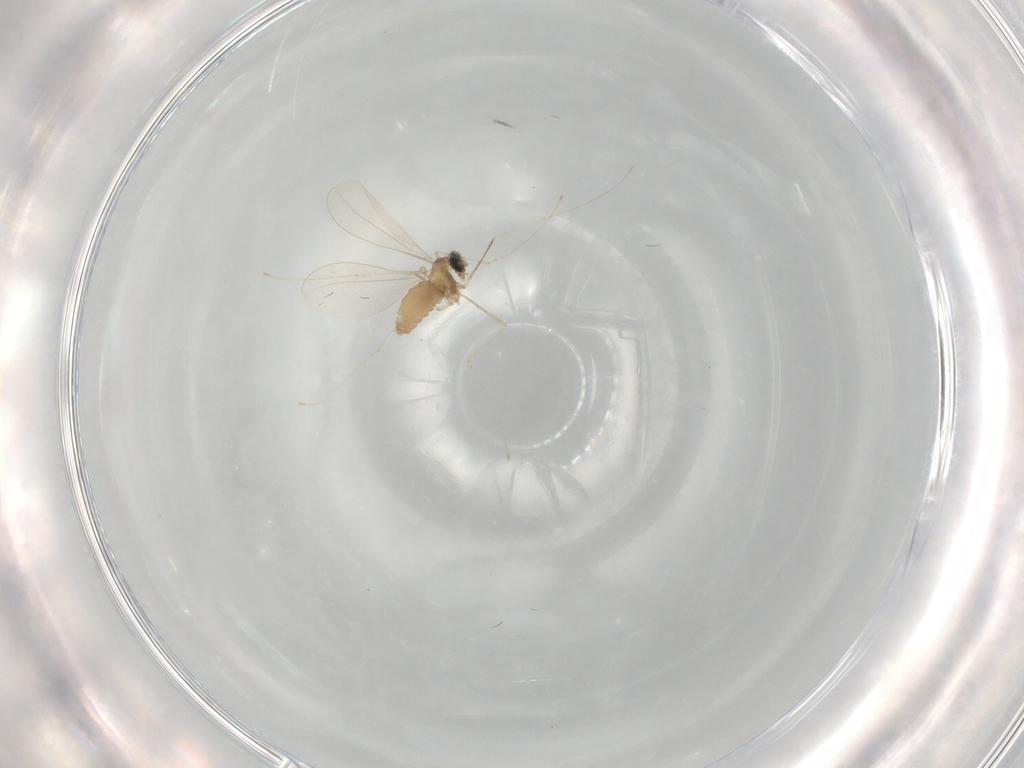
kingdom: Animalia
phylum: Arthropoda
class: Insecta
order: Diptera
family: Cecidomyiidae
